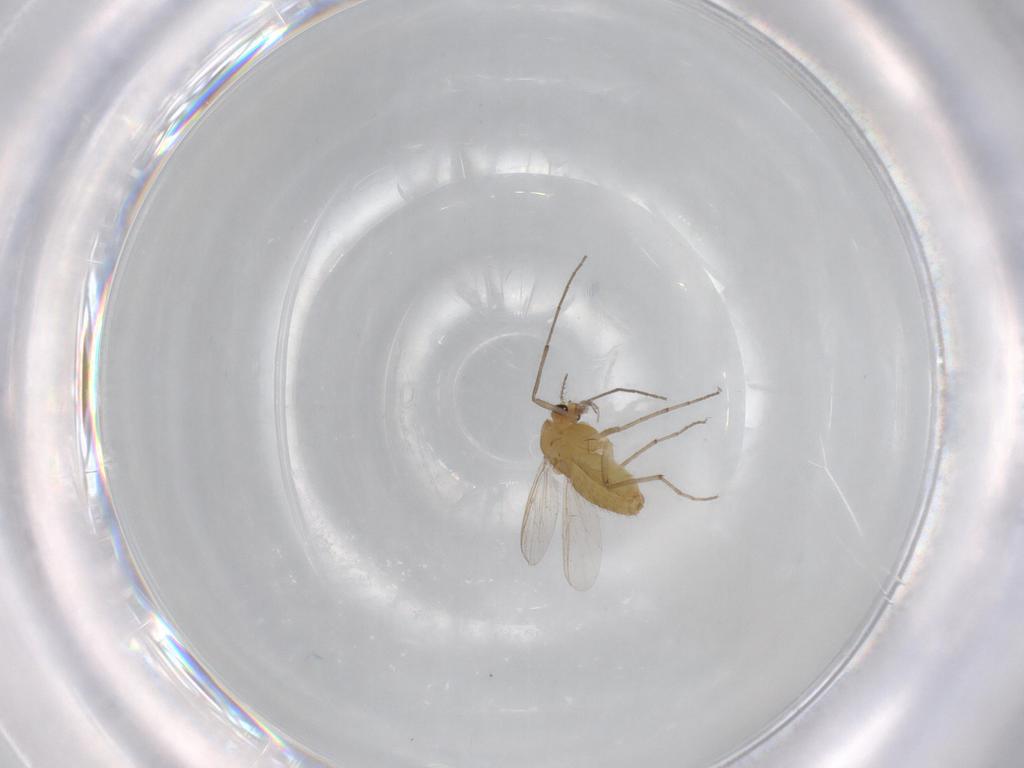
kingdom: Animalia
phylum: Arthropoda
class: Insecta
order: Diptera
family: Chironomidae
